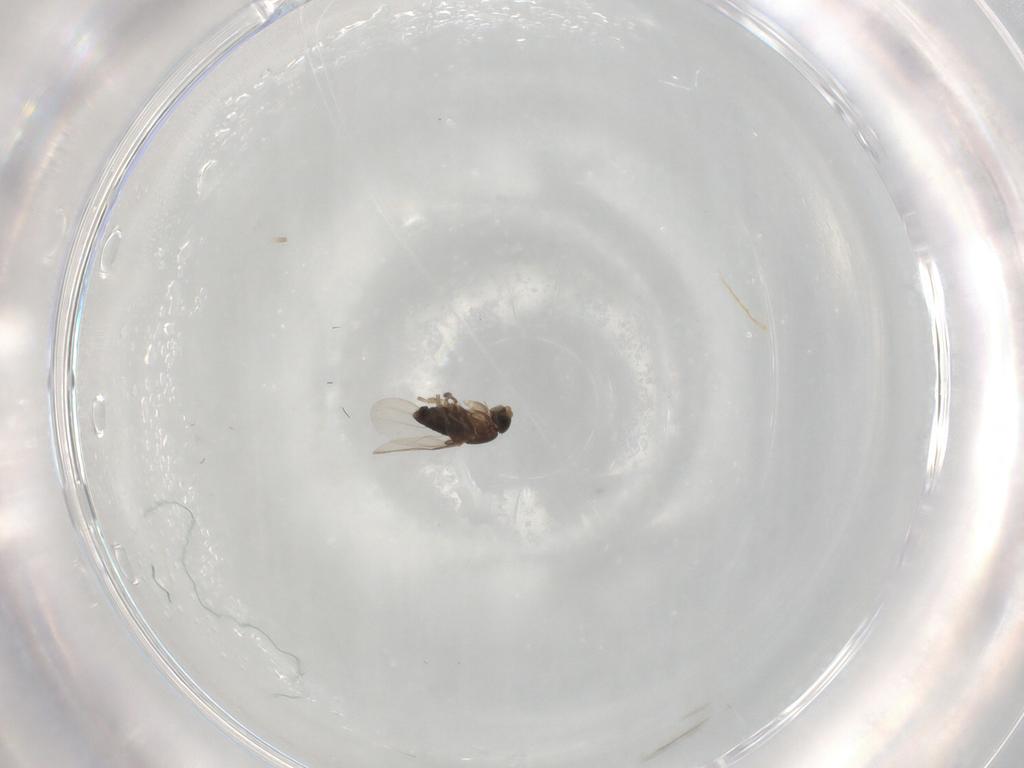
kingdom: Animalia
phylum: Arthropoda
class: Insecta
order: Diptera
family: Phoridae
